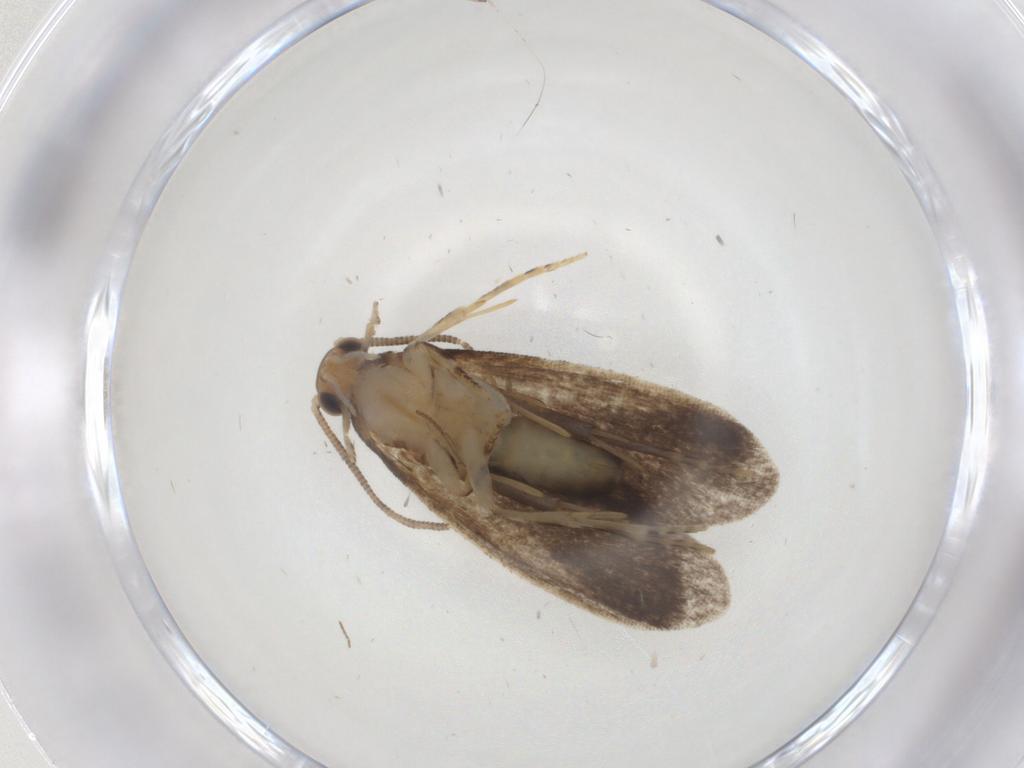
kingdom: Animalia
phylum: Arthropoda
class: Insecta
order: Lepidoptera
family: Dryadaulidae
